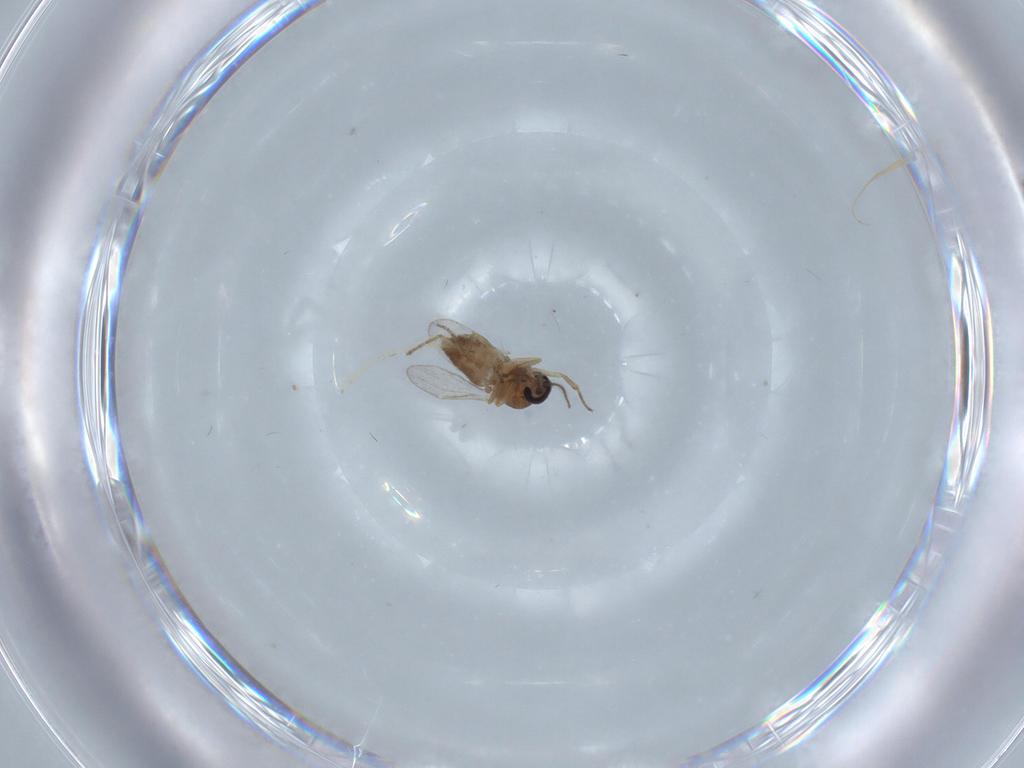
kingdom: Animalia
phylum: Arthropoda
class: Insecta
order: Diptera
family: Ceratopogonidae
